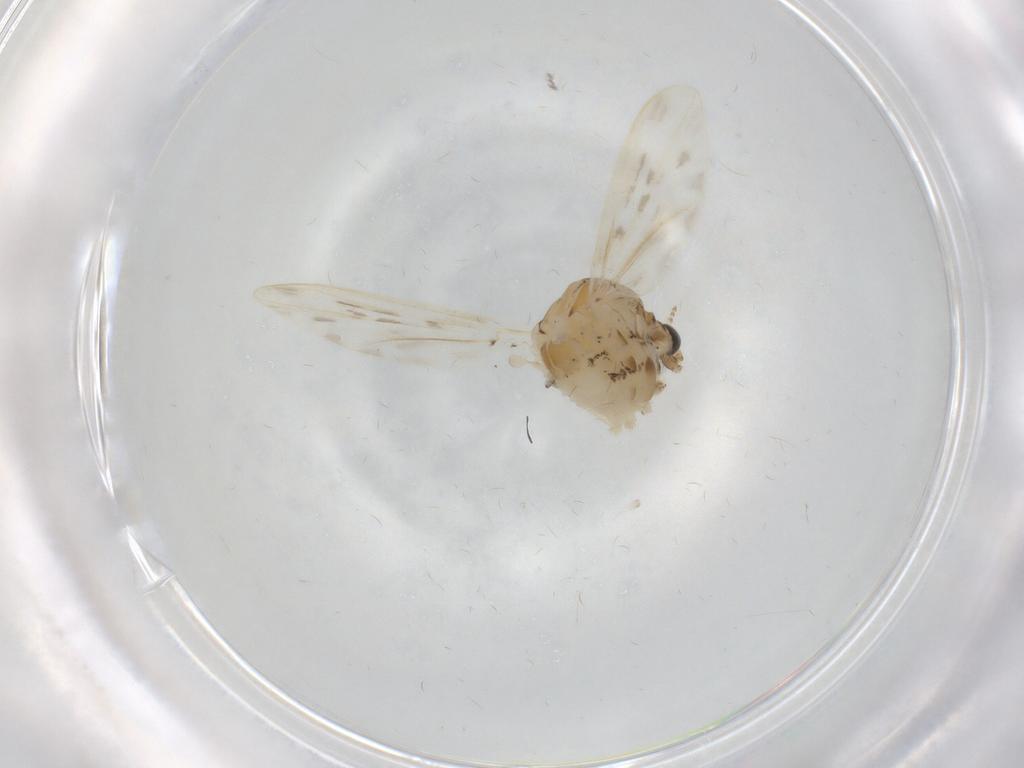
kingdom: Animalia
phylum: Arthropoda
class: Insecta
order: Diptera
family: Chaoboridae
